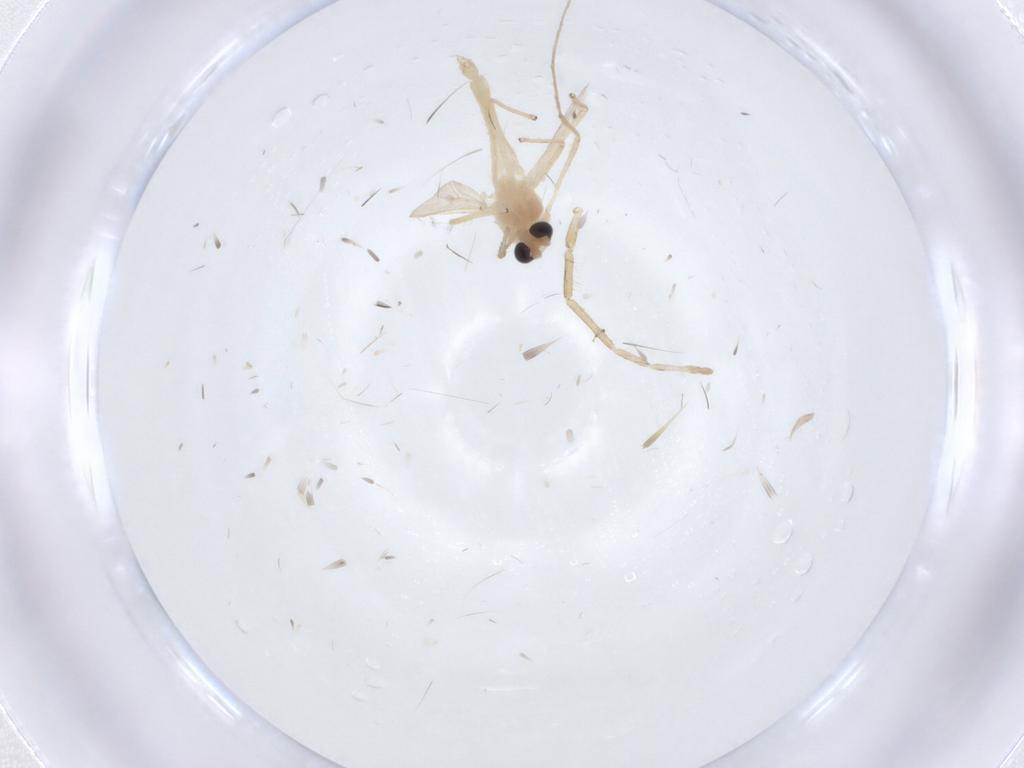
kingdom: Animalia
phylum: Arthropoda
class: Insecta
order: Diptera
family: Chironomidae
